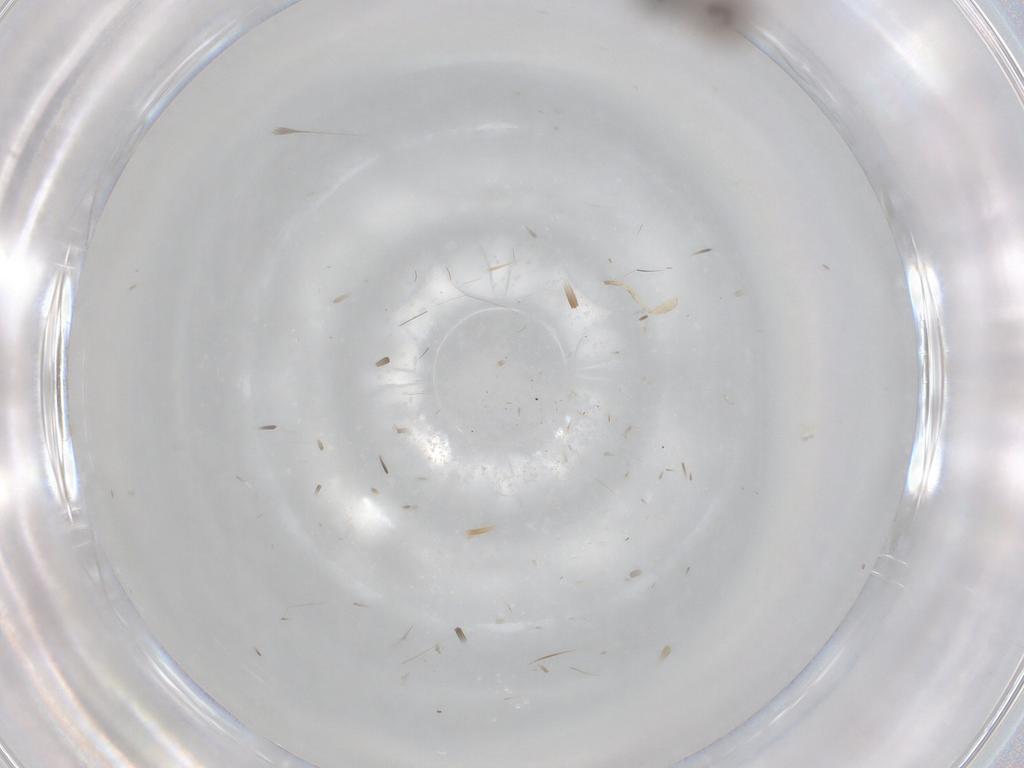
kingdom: Animalia
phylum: Arthropoda
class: Insecta
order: Lepidoptera
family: Nepticulidae
